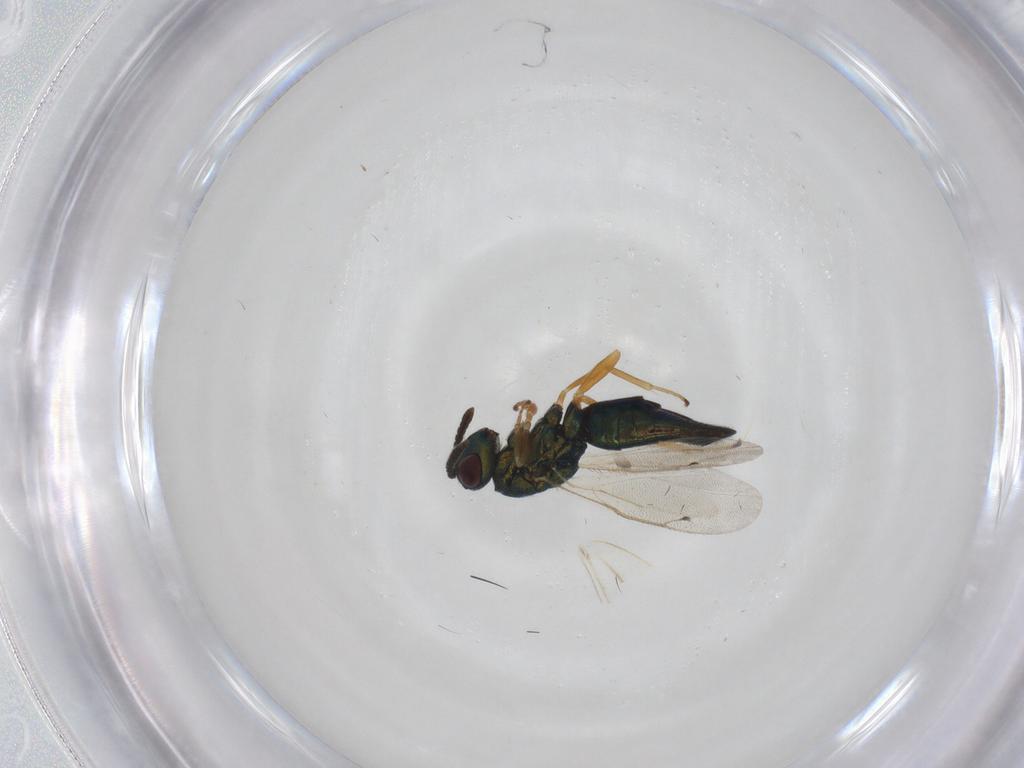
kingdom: Animalia
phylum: Arthropoda
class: Insecta
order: Hymenoptera
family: Pteromalidae
